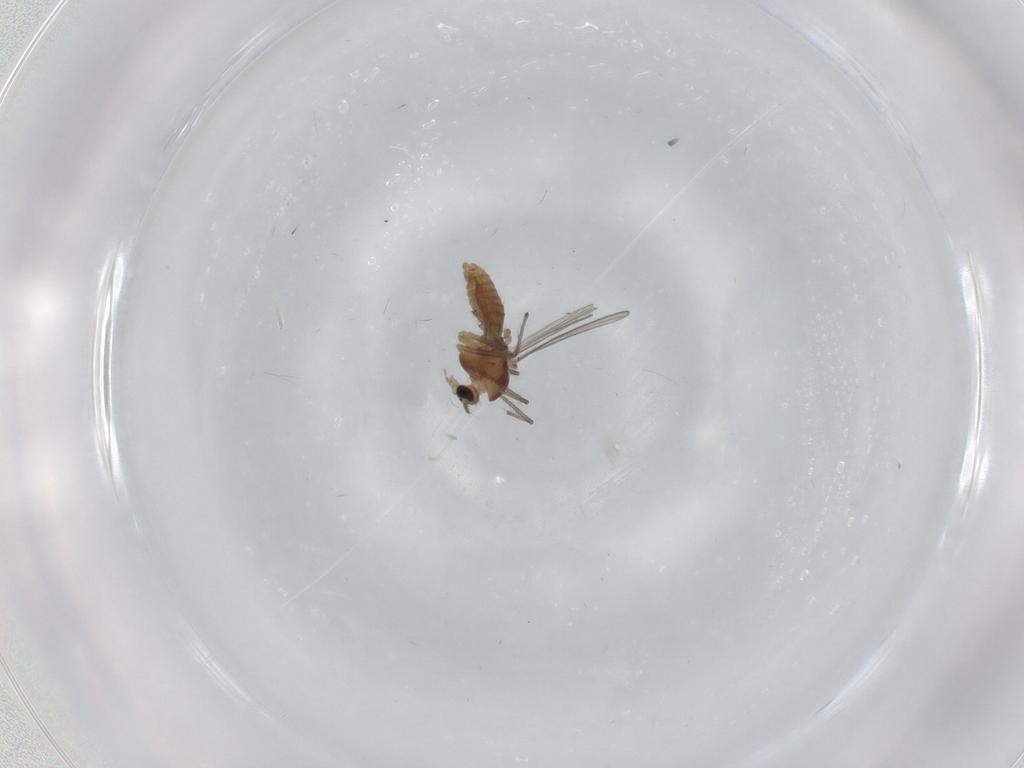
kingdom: Animalia
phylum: Arthropoda
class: Insecta
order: Diptera
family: Chironomidae
